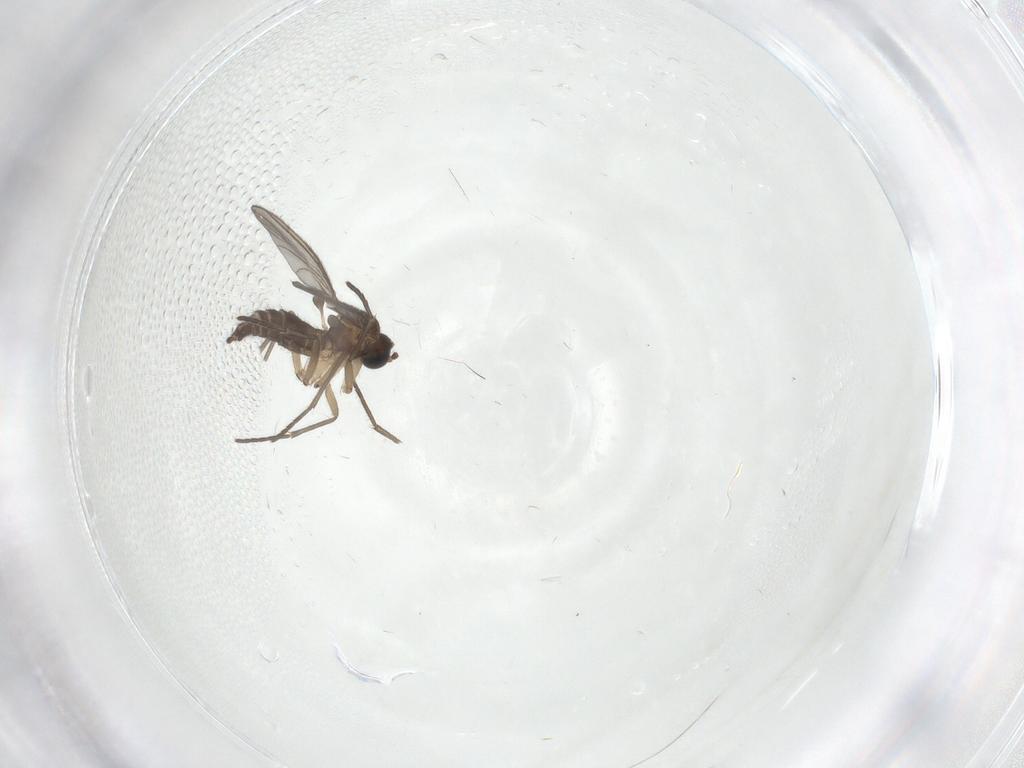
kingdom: Animalia
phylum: Arthropoda
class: Insecta
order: Diptera
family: Sciaridae
